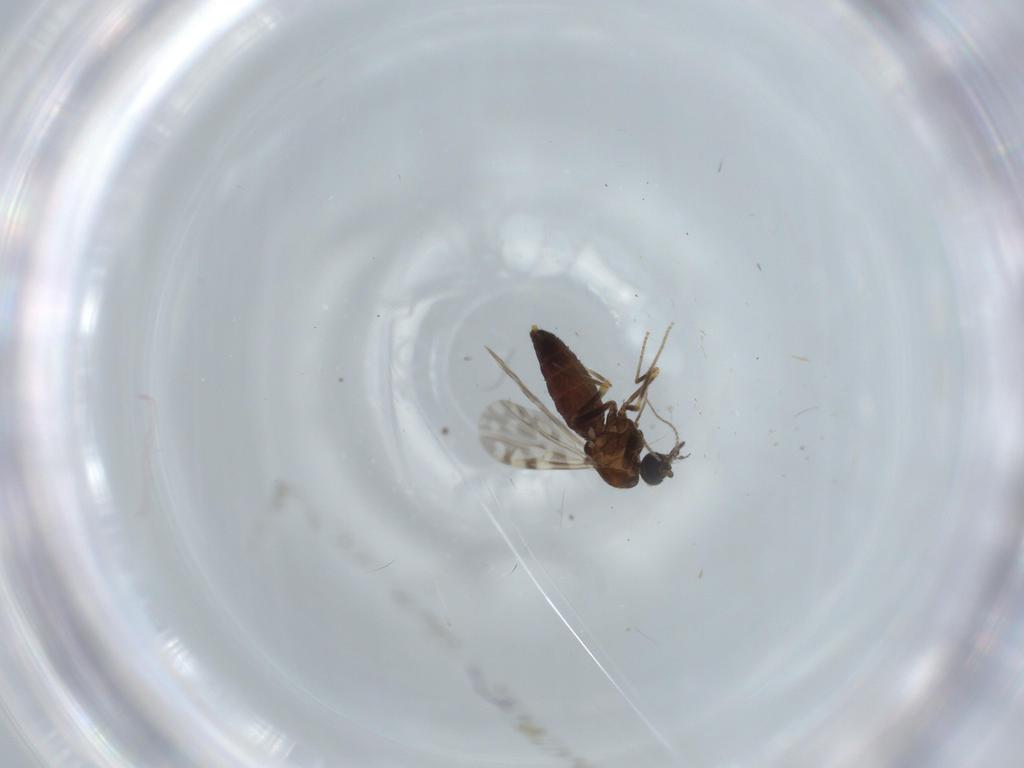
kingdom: Animalia
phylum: Arthropoda
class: Insecta
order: Diptera
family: Ceratopogonidae
